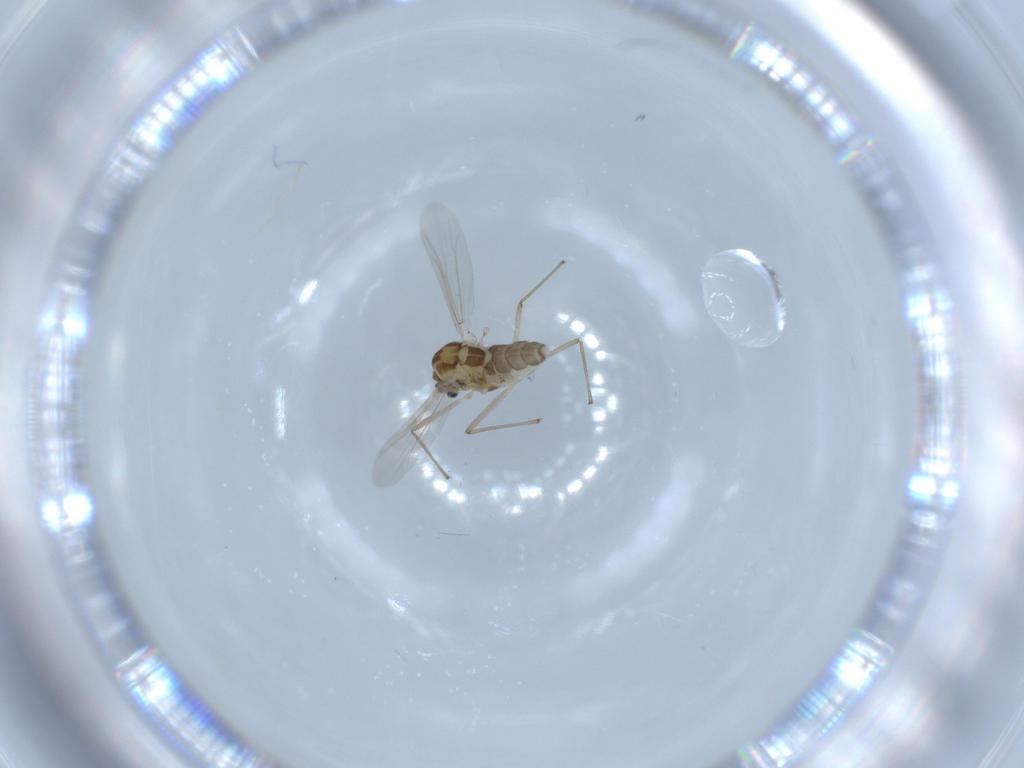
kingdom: Animalia
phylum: Arthropoda
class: Insecta
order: Diptera
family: Chironomidae
